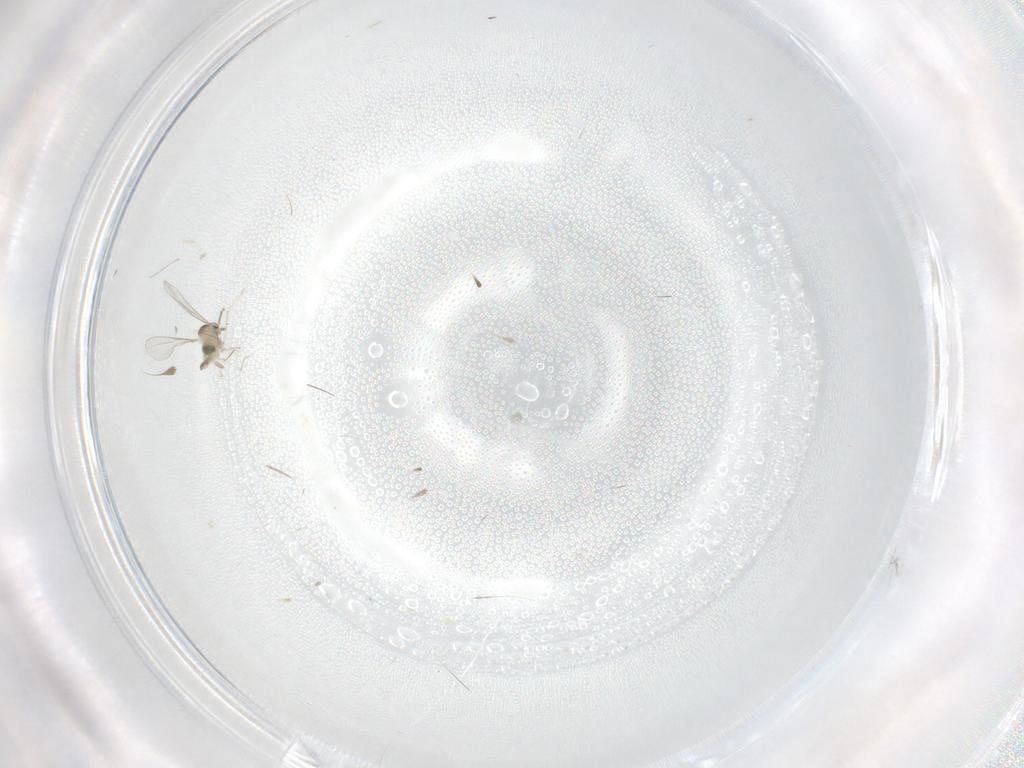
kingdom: Animalia
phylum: Arthropoda
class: Insecta
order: Diptera
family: Cecidomyiidae
